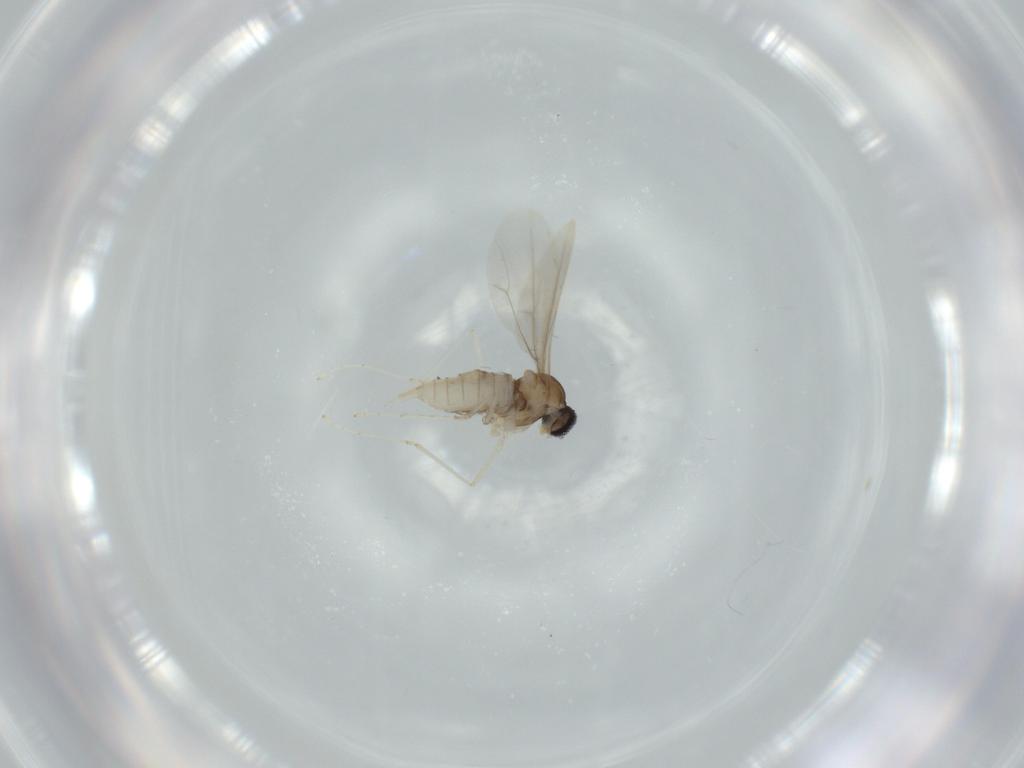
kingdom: Animalia
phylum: Arthropoda
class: Insecta
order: Diptera
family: Cecidomyiidae
